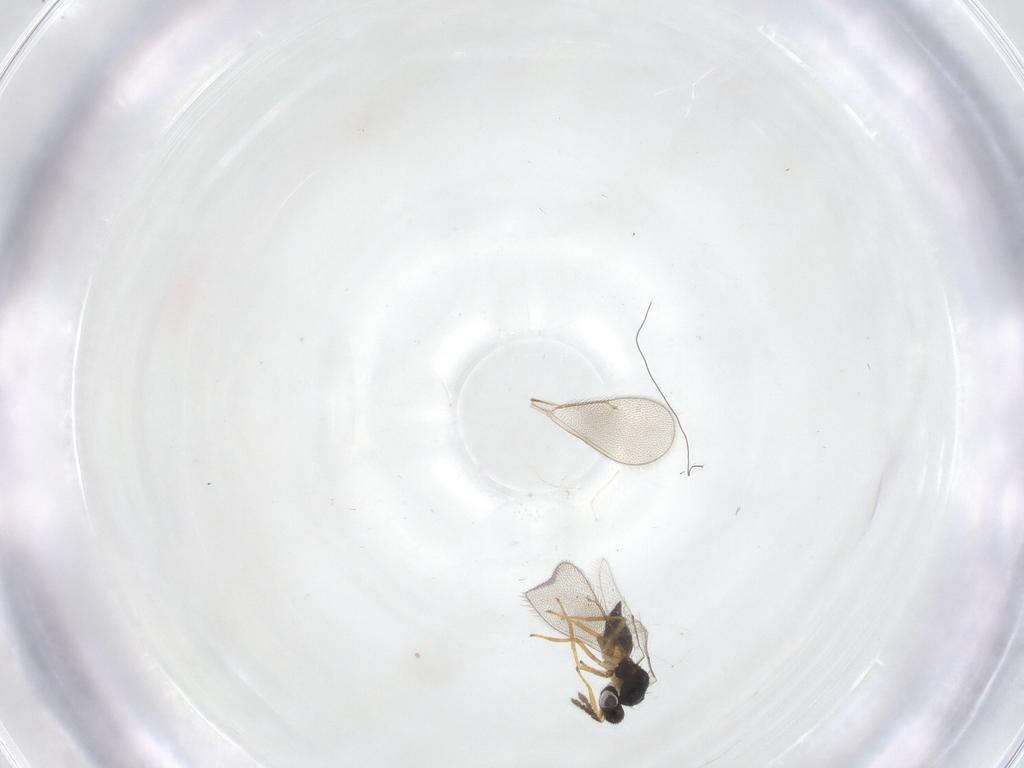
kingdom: Animalia
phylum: Arthropoda
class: Insecta
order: Hymenoptera
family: Eulophidae
